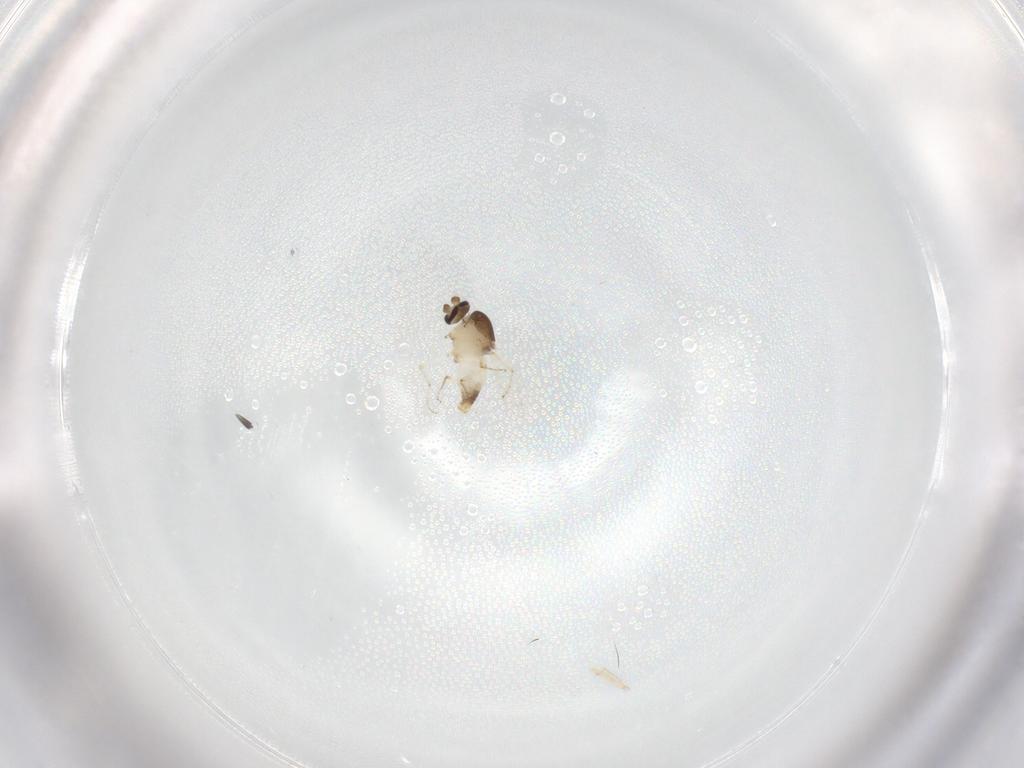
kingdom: Animalia
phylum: Arthropoda
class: Insecta
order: Diptera
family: Ceratopogonidae
